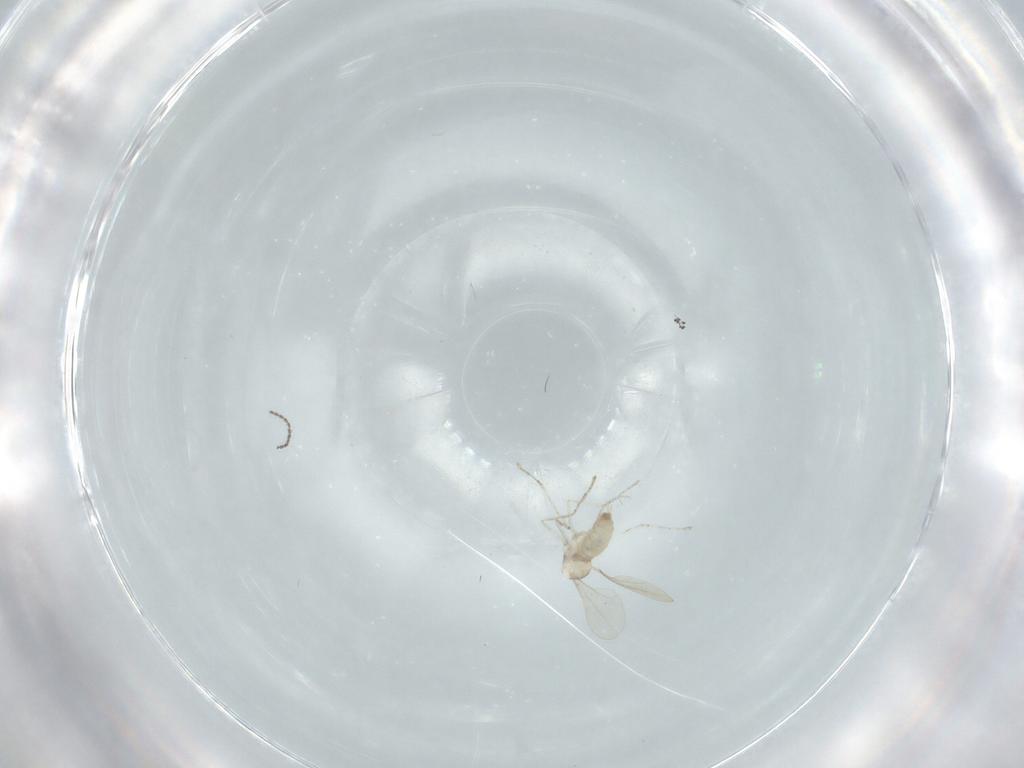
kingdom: Animalia
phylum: Arthropoda
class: Insecta
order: Diptera
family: Cecidomyiidae
